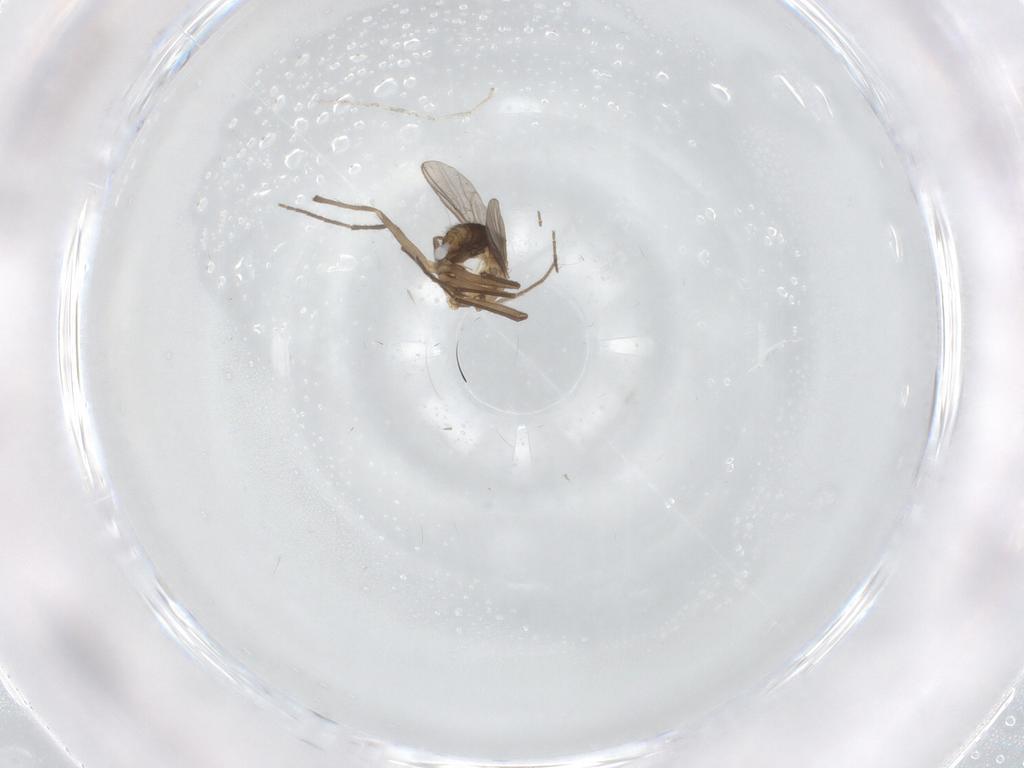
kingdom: Animalia
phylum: Arthropoda
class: Insecta
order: Diptera
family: Chironomidae
